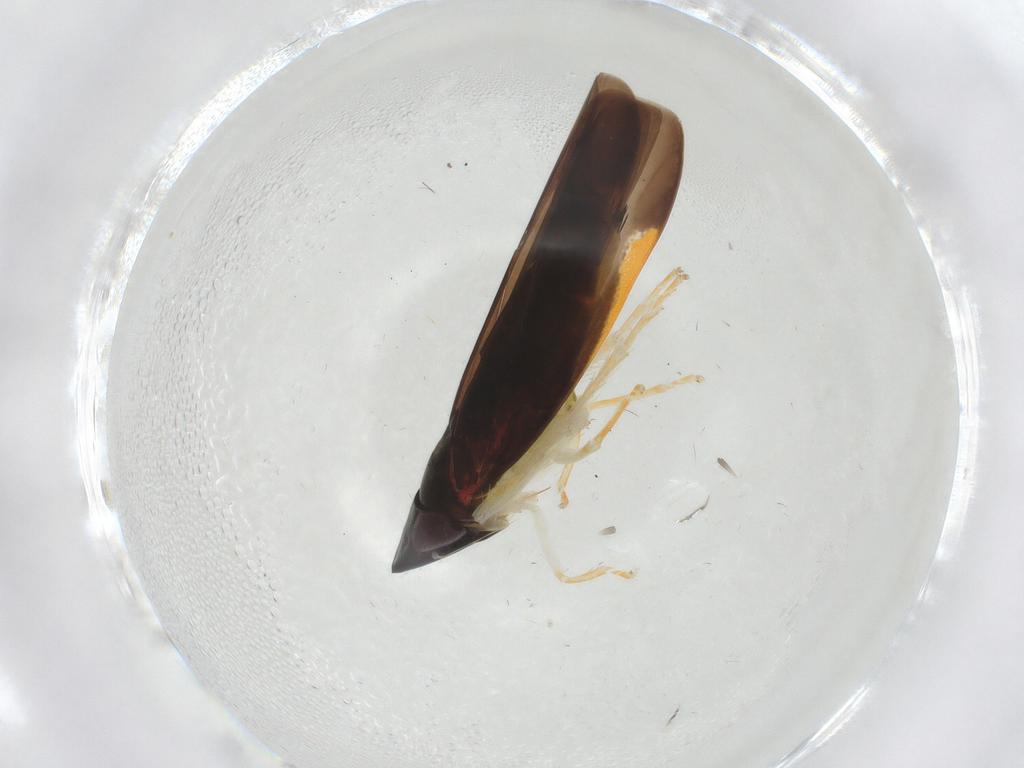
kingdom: Animalia
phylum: Arthropoda
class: Insecta
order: Hemiptera
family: Cicadellidae
